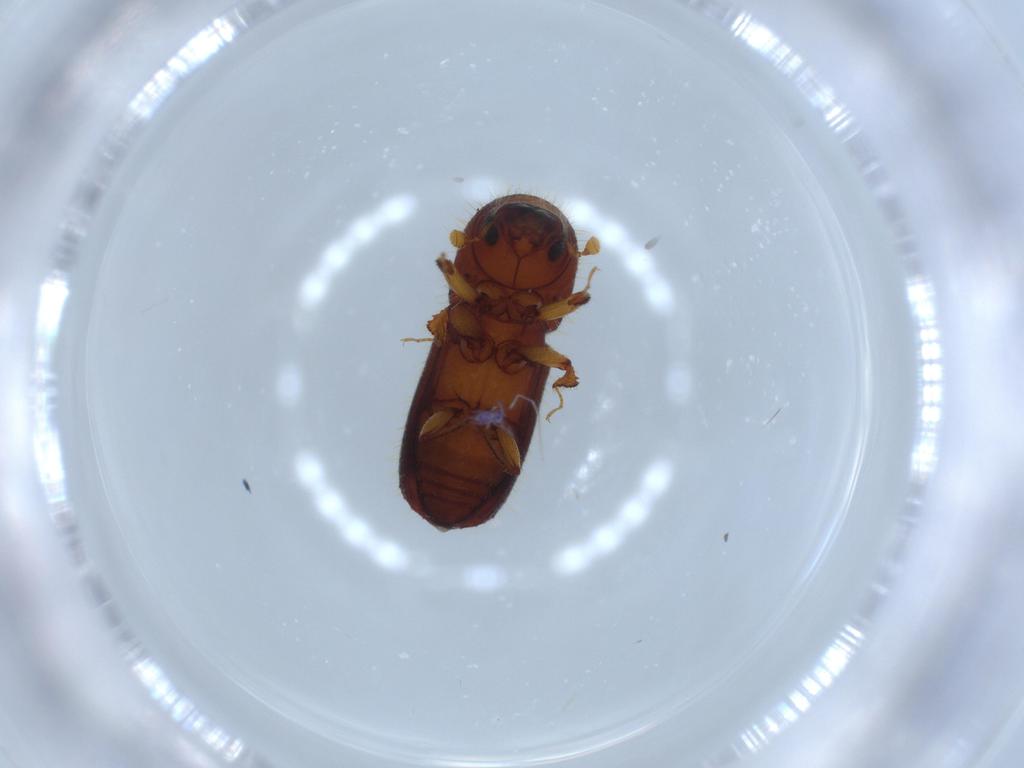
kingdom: Animalia
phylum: Arthropoda
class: Insecta
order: Coleoptera
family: Curculionidae
